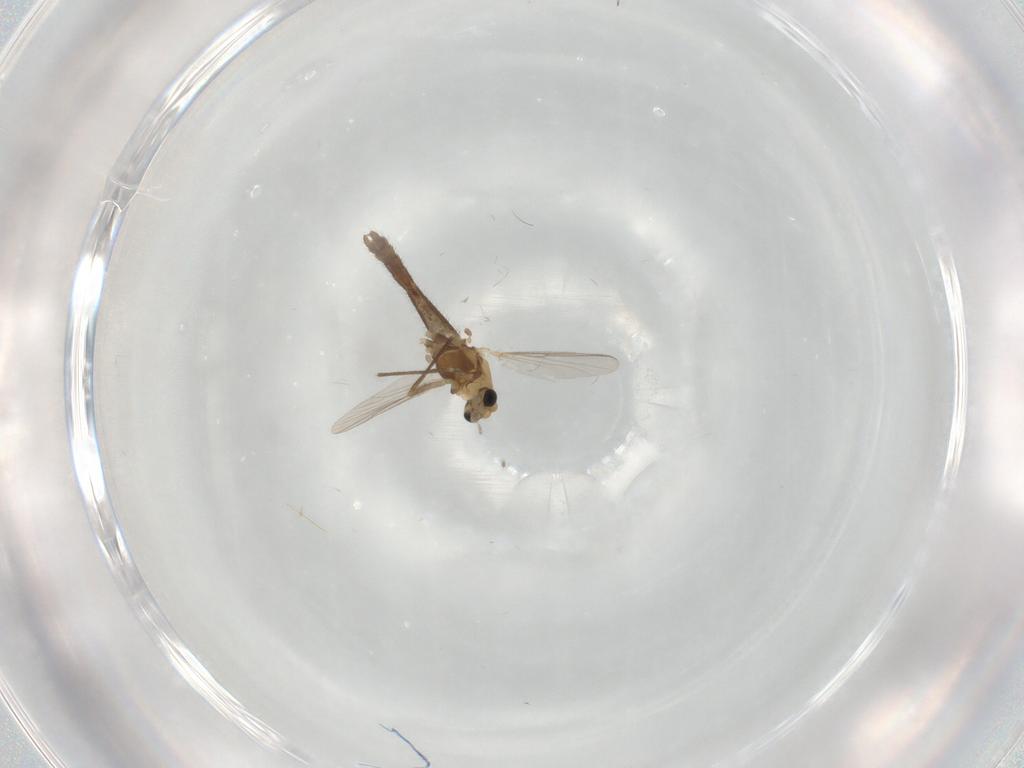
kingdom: Animalia
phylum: Arthropoda
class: Insecta
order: Diptera
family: Chironomidae
